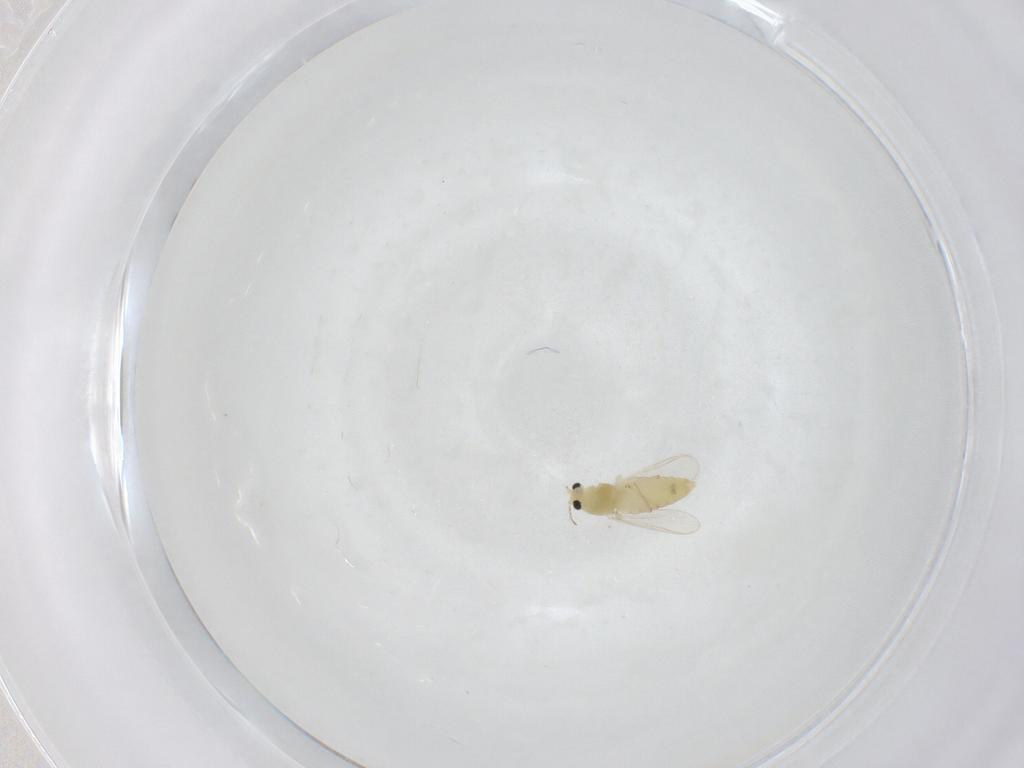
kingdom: Animalia
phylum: Arthropoda
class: Insecta
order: Diptera
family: Chironomidae
